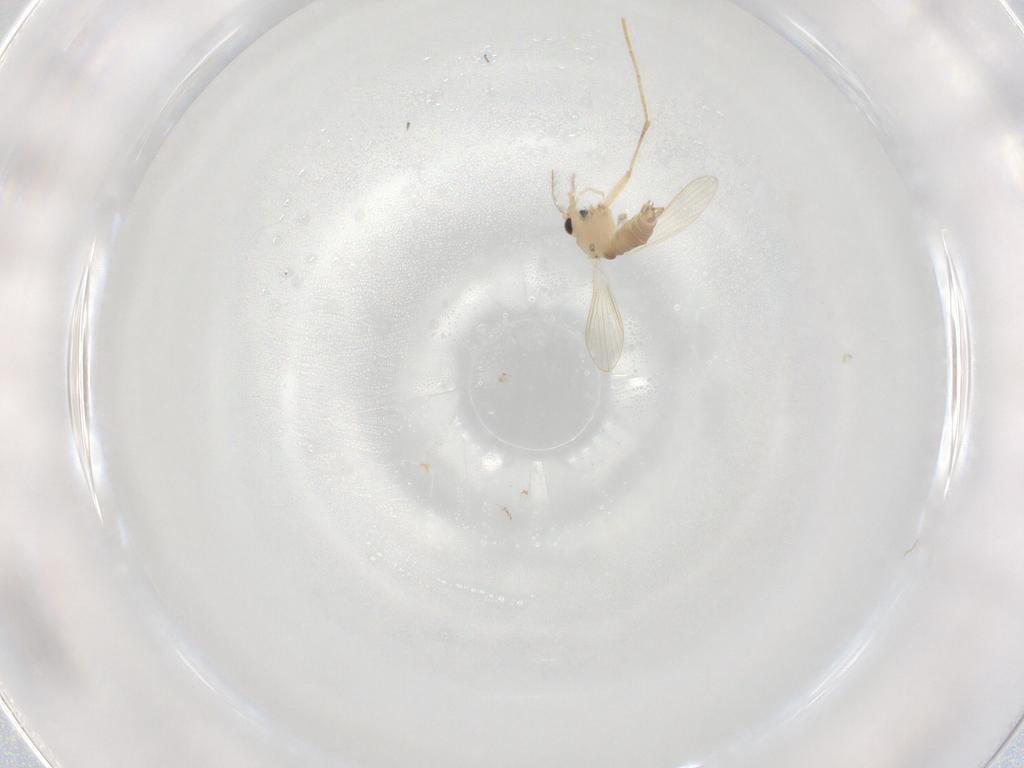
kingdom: Animalia
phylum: Arthropoda
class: Insecta
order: Diptera
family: Psychodidae
